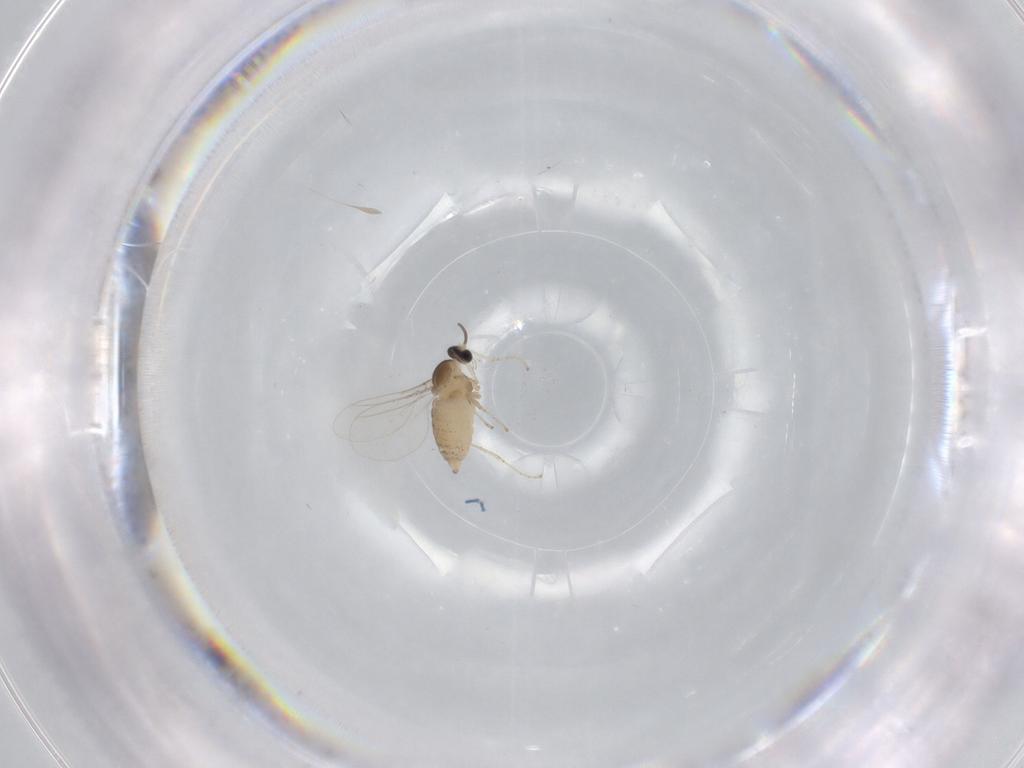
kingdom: Animalia
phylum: Arthropoda
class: Insecta
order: Diptera
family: Cecidomyiidae
